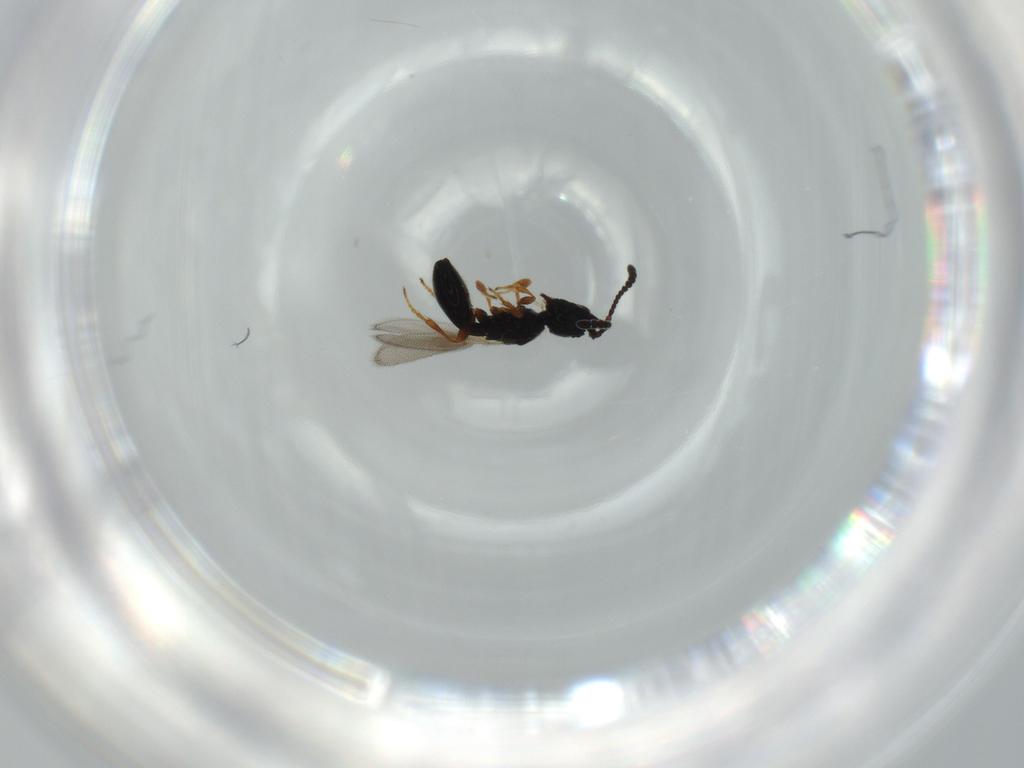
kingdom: Animalia
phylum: Arthropoda
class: Insecta
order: Hymenoptera
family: Diapriidae
